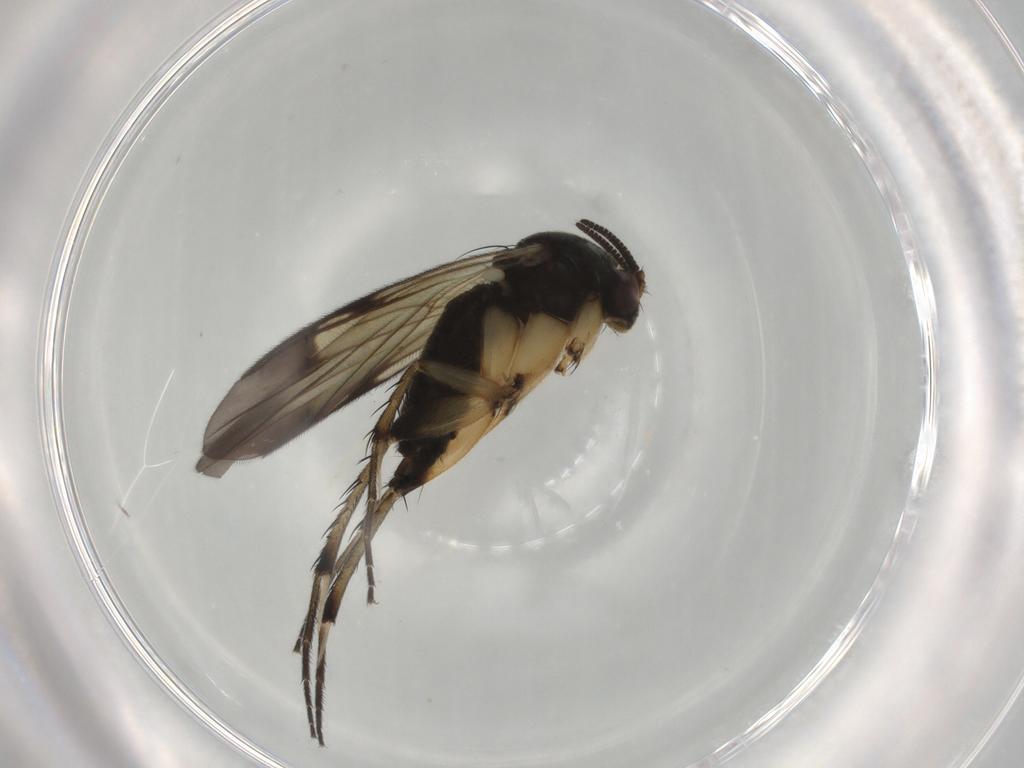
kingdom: Animalia
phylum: Arthropoda
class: Insecta
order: Diptera
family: Mycetophilidae
